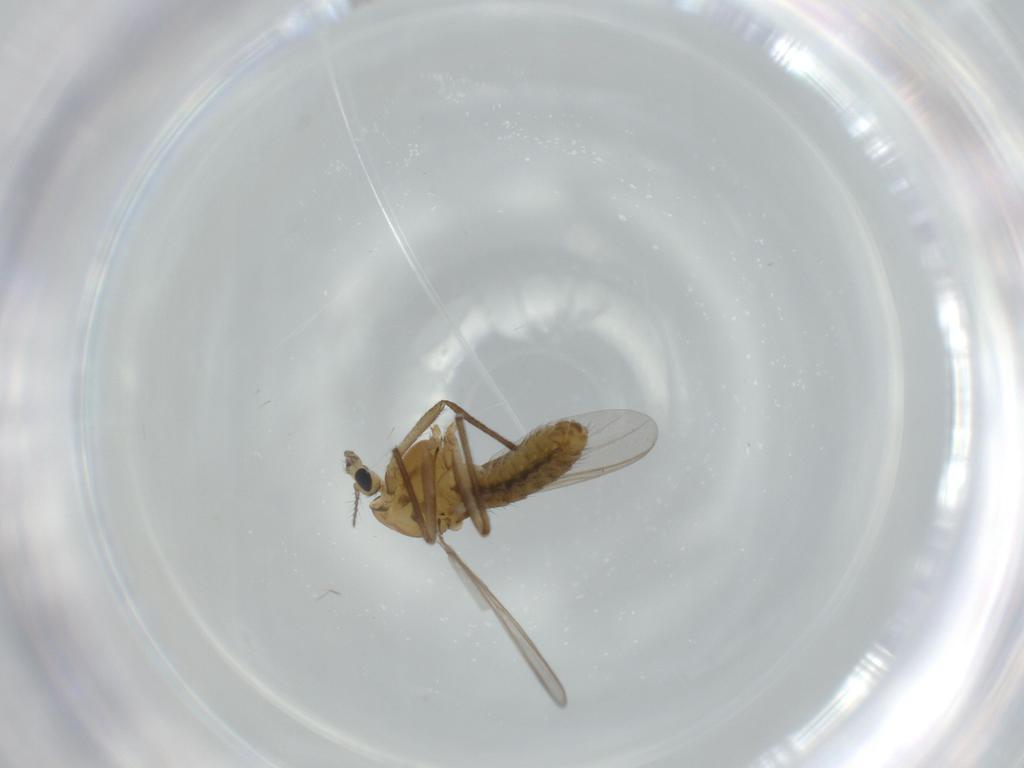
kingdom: Animalia
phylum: Arthropoda
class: Insecta
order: Diptera
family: Chironomidae
